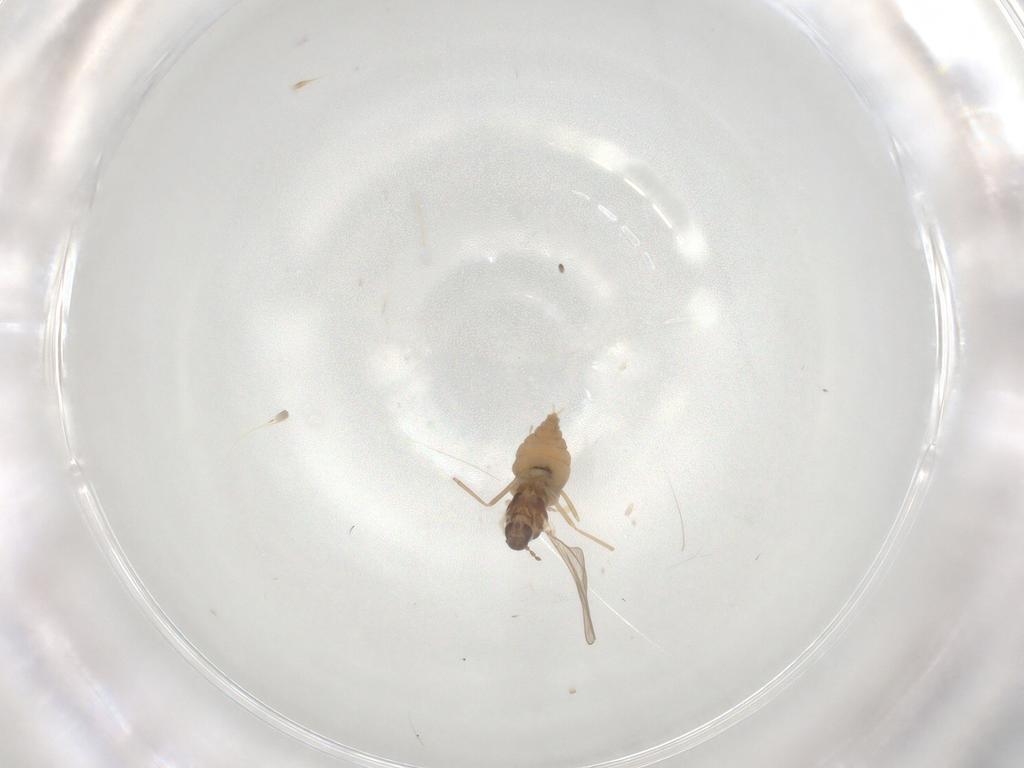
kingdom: Animalia
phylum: Arthropoda
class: Insecta
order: Diptera
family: Cecidomyiidae
